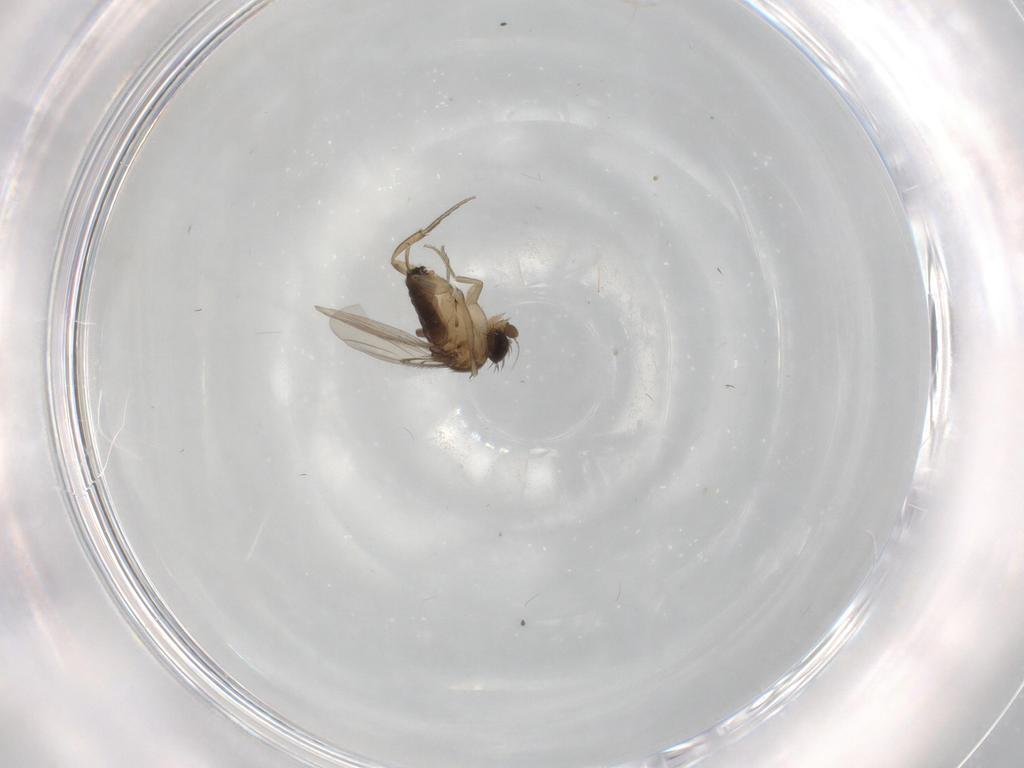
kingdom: Animalia
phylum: Arthropoda
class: Insecta
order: Diptera
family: Phoridae
